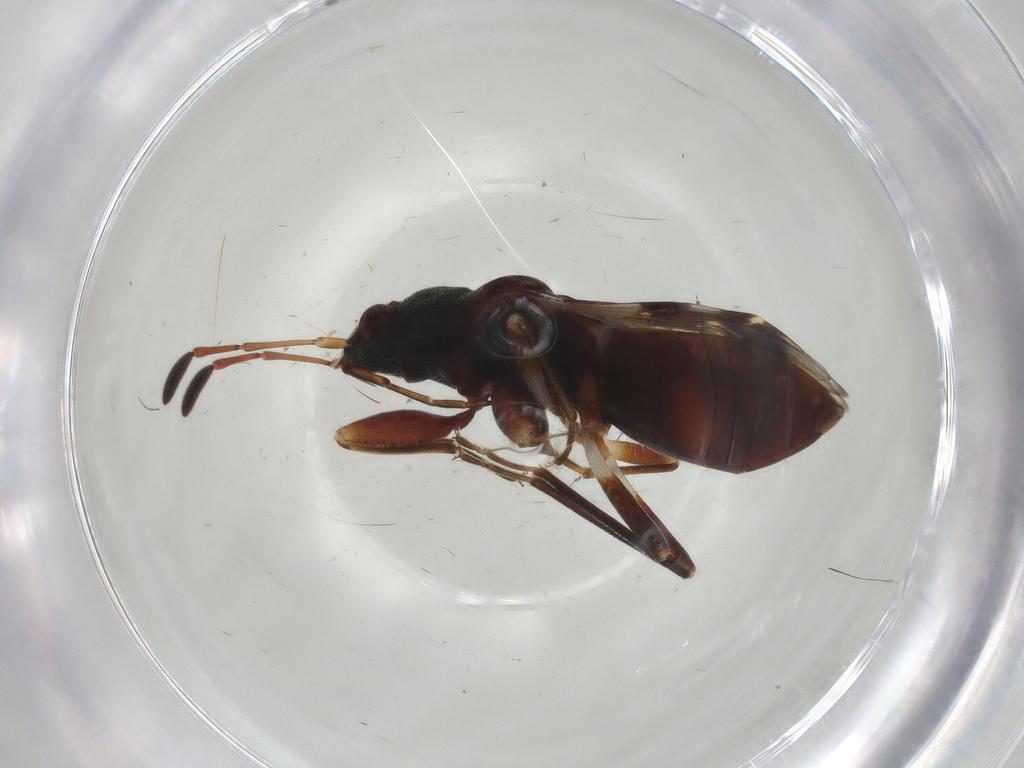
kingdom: Animalia
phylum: Arthropoda
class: Insecta
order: Hemiptera
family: Rhyparochromidae
